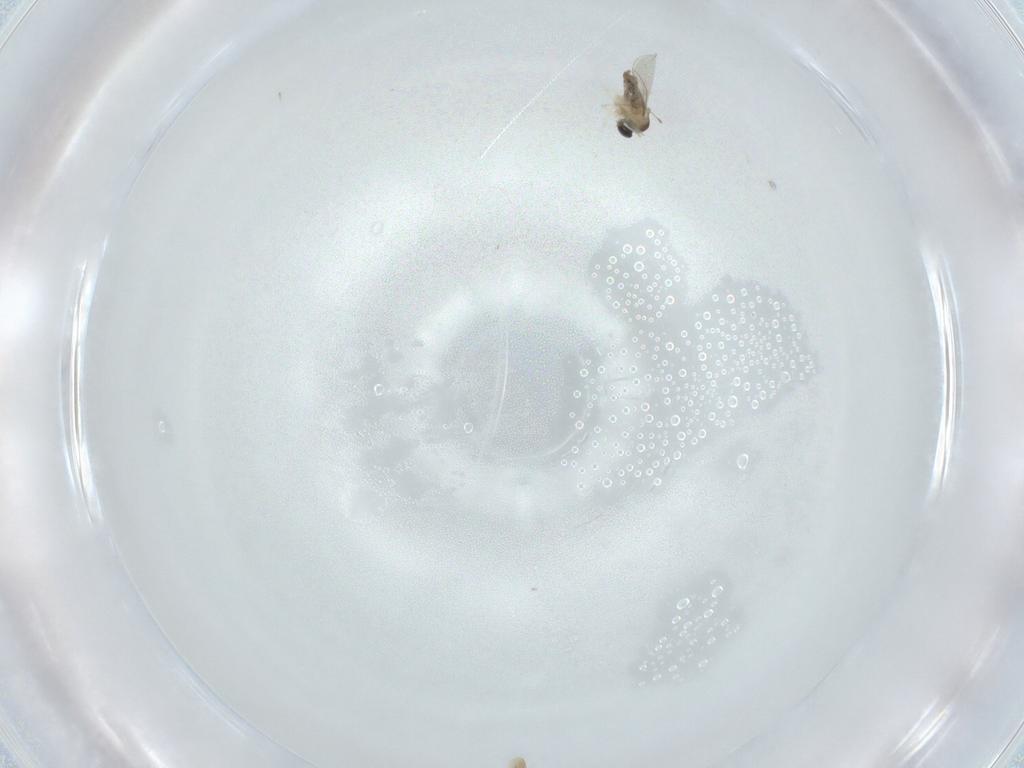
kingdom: Animalia
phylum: Arthropoda
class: Insecta
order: Diptera
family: Cecidomyiidae
